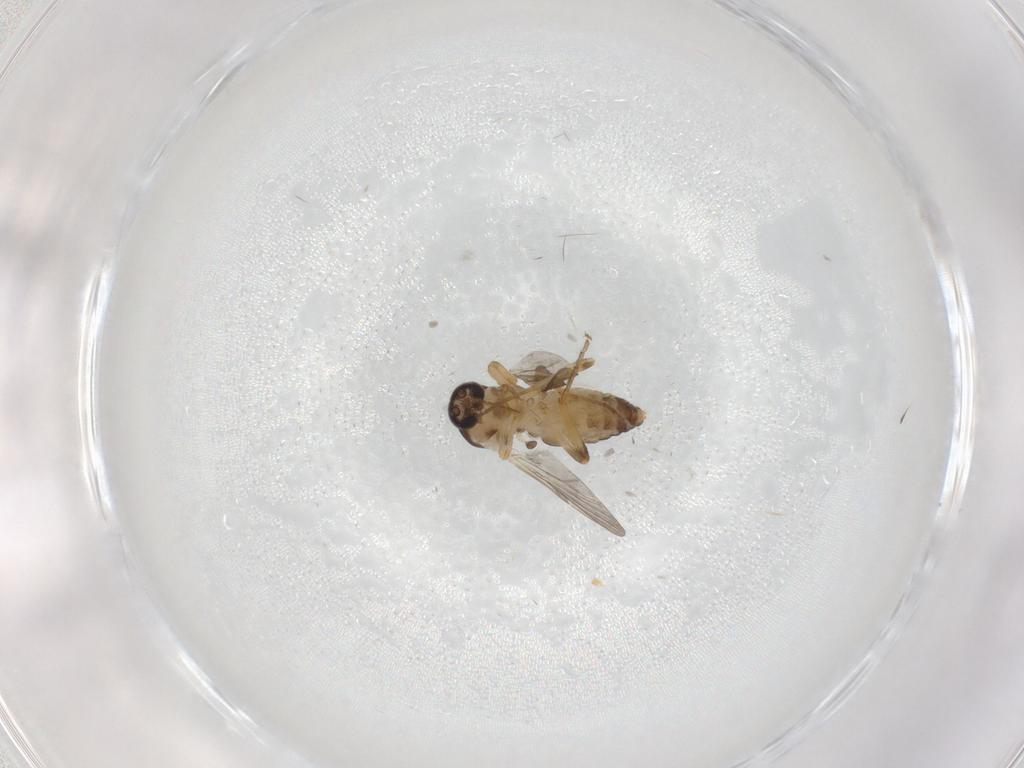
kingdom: Animalia
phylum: Arthropoda
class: Insecta
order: Diptera
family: Ceratopogonidae
